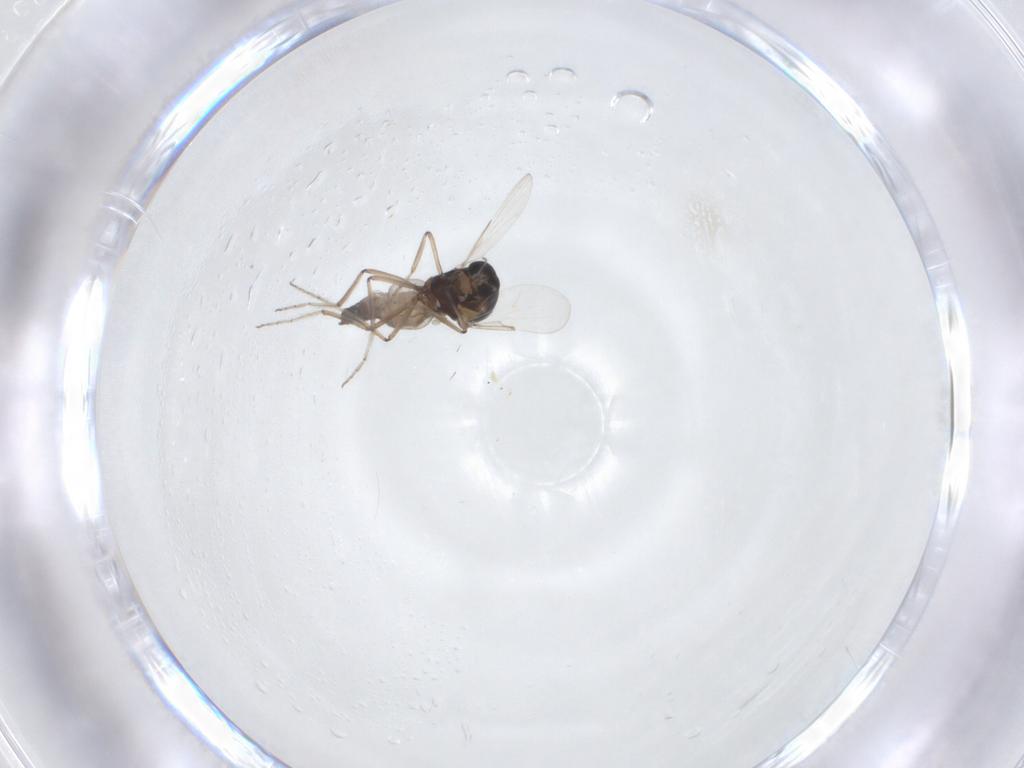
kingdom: Animalia
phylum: Arthropoda
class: Insecta
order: Diptera
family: Ceratopogonidae
